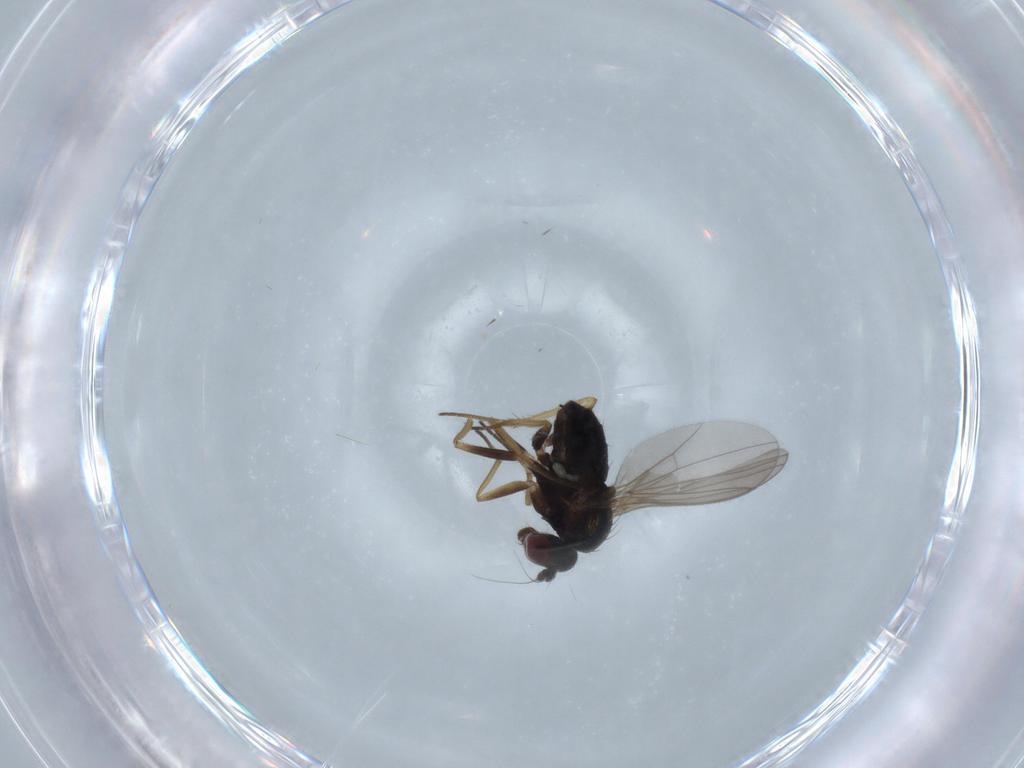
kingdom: Animalia
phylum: Arthropoda
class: Insecta
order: Diptera
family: Dolichopodidae
